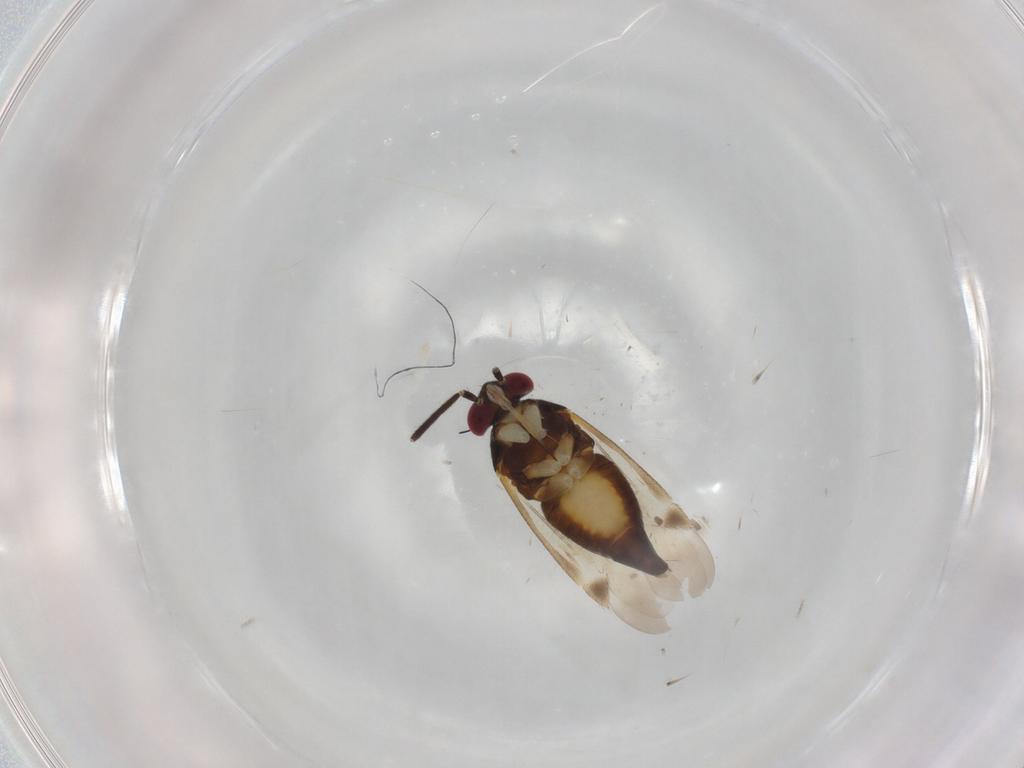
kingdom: Animalia
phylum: Arthropoda
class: Insecta
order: Hemiptera
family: Miridae
